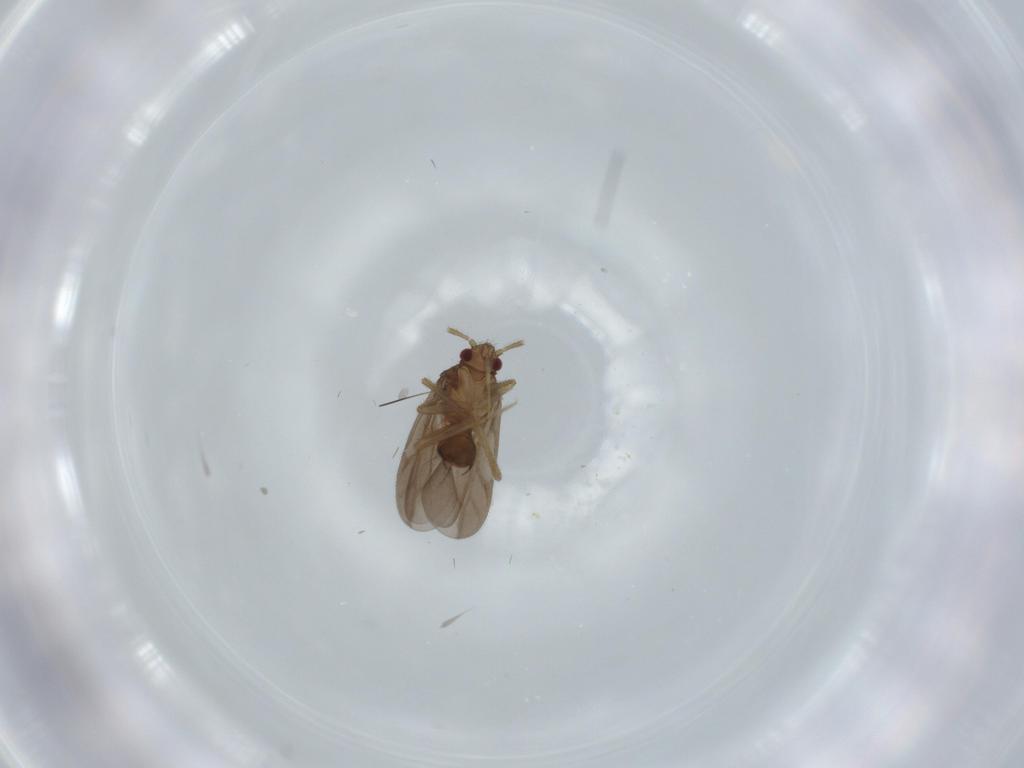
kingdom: Animalia
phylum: Arthropoda
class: Insecta
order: Hemiptera
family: Ceratocombidae
